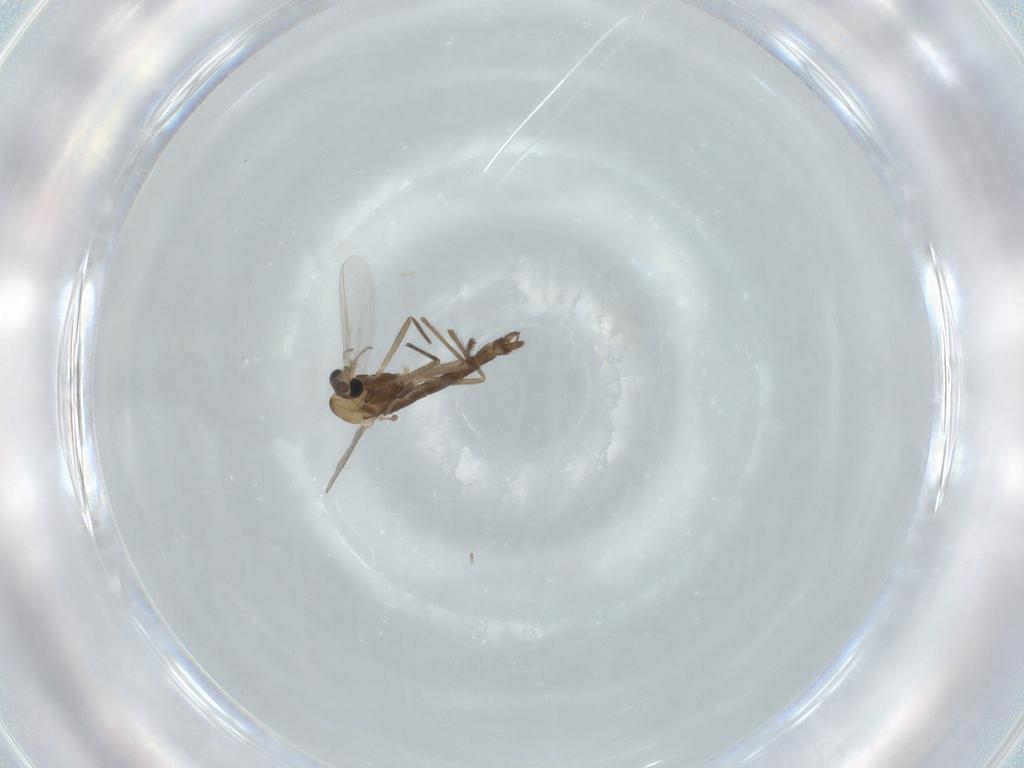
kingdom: Animalia
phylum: Arthropoda
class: Insecta
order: Diptera
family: Chironomidae
